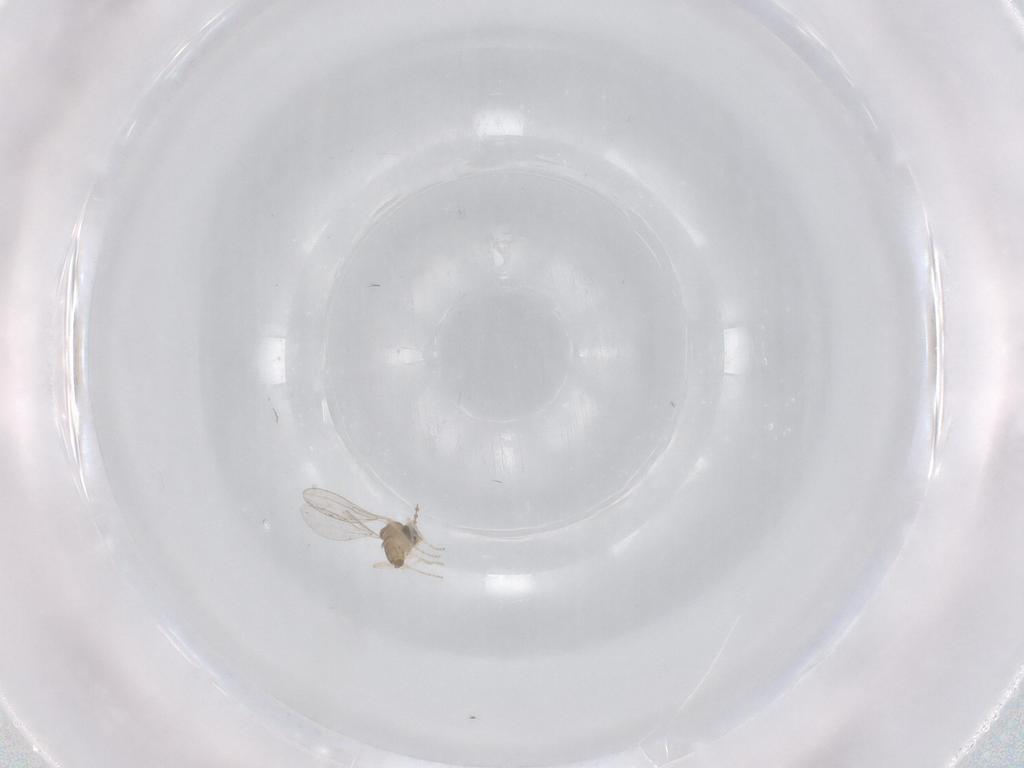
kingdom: Animalia
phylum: Arthropoda
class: Insecta
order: Diptera
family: Cecidomyiidae
